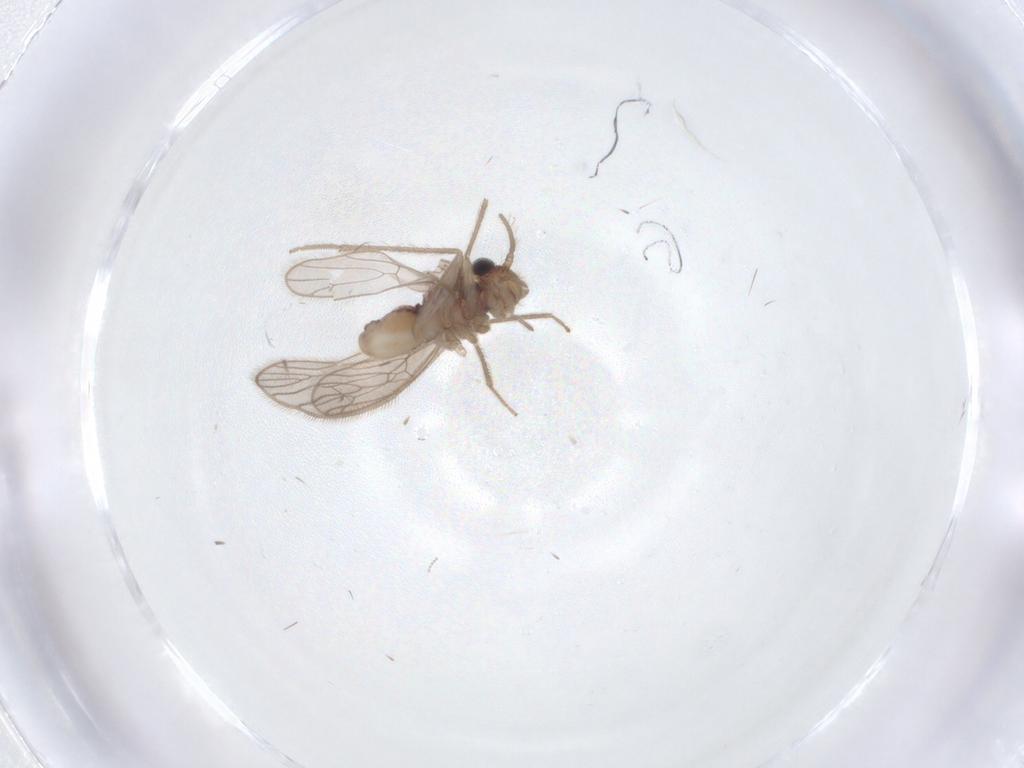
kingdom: Animalia
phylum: Arthropoda
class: Insecta
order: Psocodea
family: Cladiopsocidae
